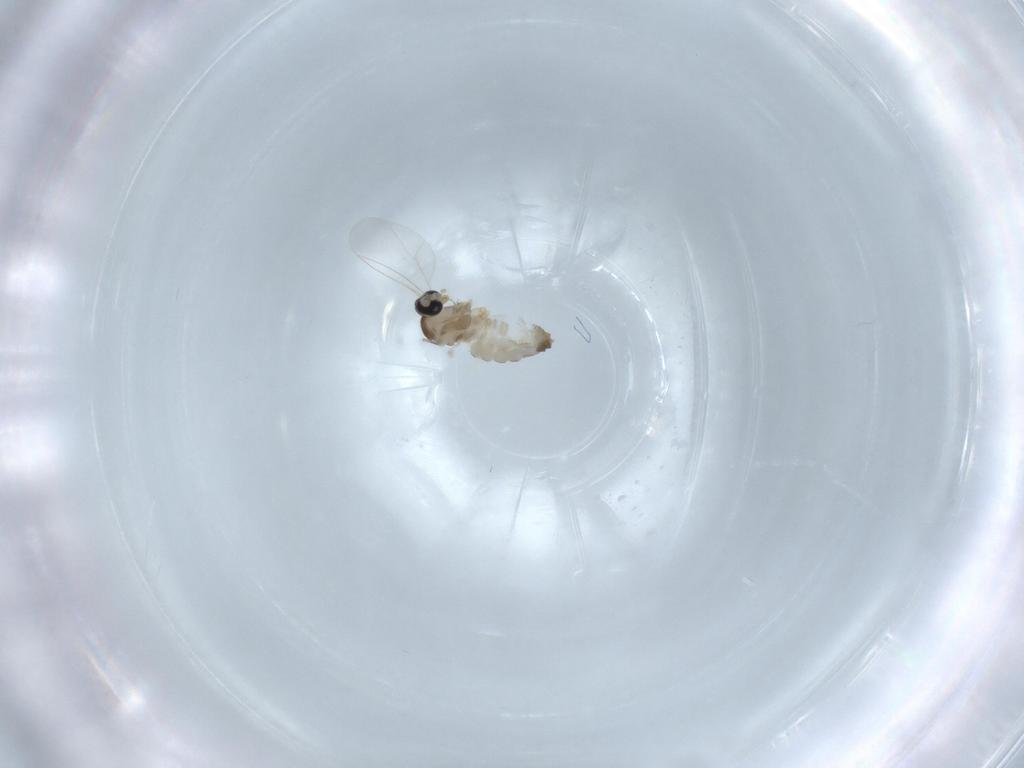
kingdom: Animalia
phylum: Arthropoda
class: Insecta
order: Diptera
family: Cecidomyiidae
